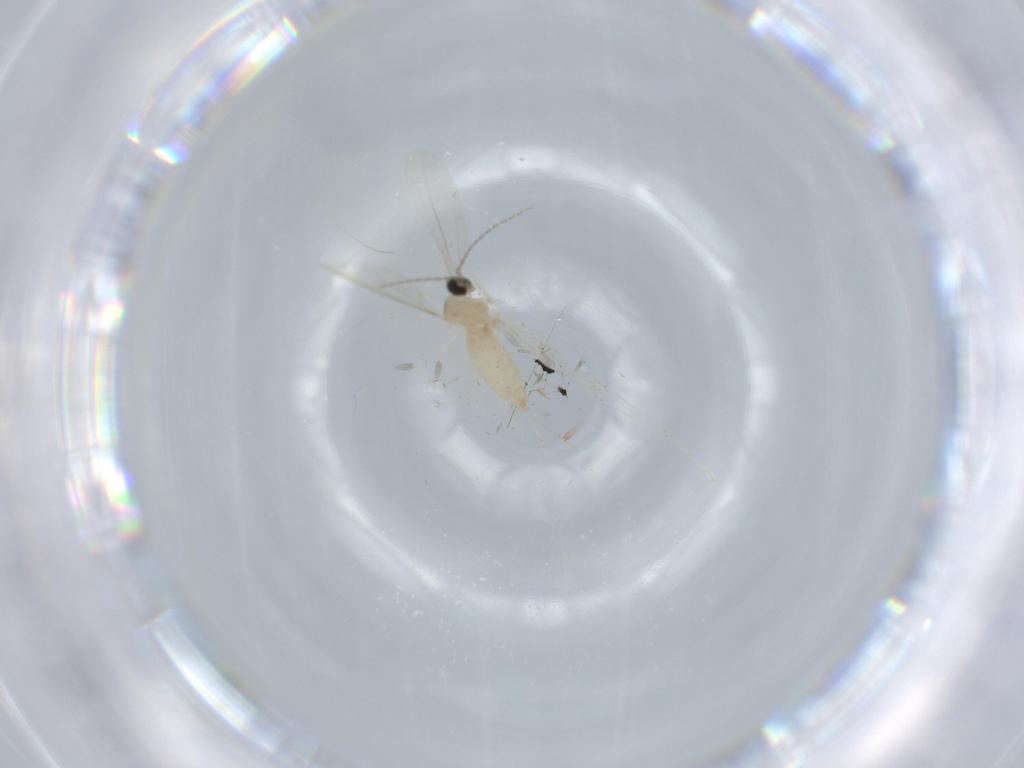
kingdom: Animalia
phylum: Arthropoda
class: Insecta
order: Diptera
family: Cecidomyiidae
